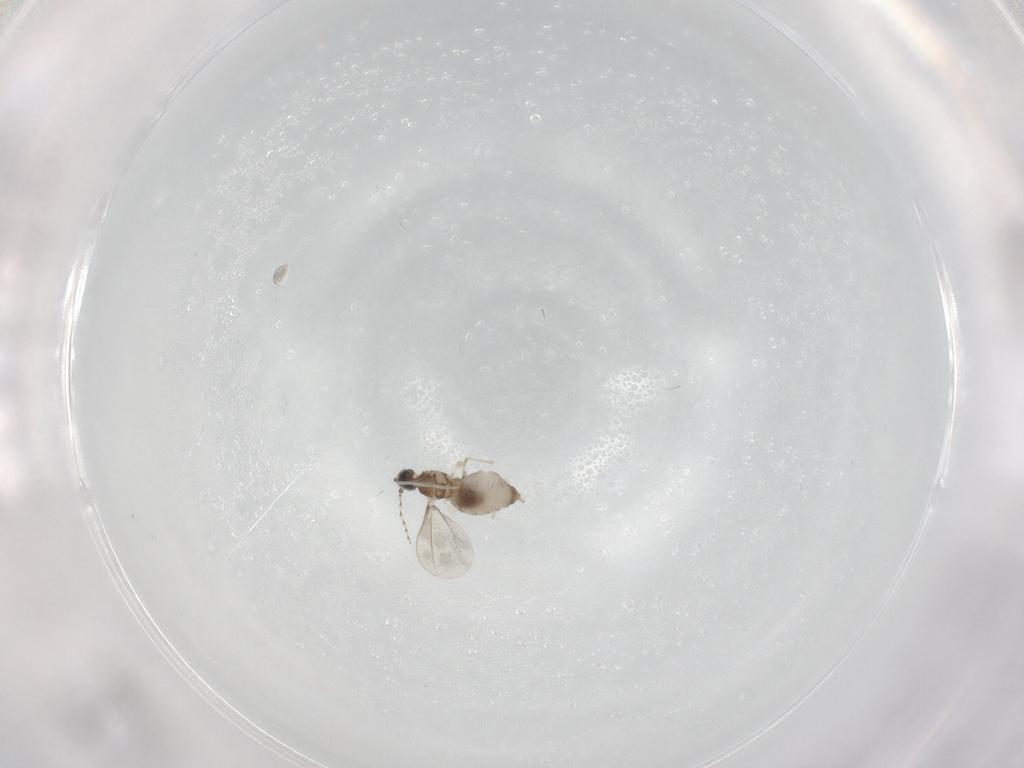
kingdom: Animalia
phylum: Arthropoda
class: Insecta
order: Diptera
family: Cecidomyiidae
